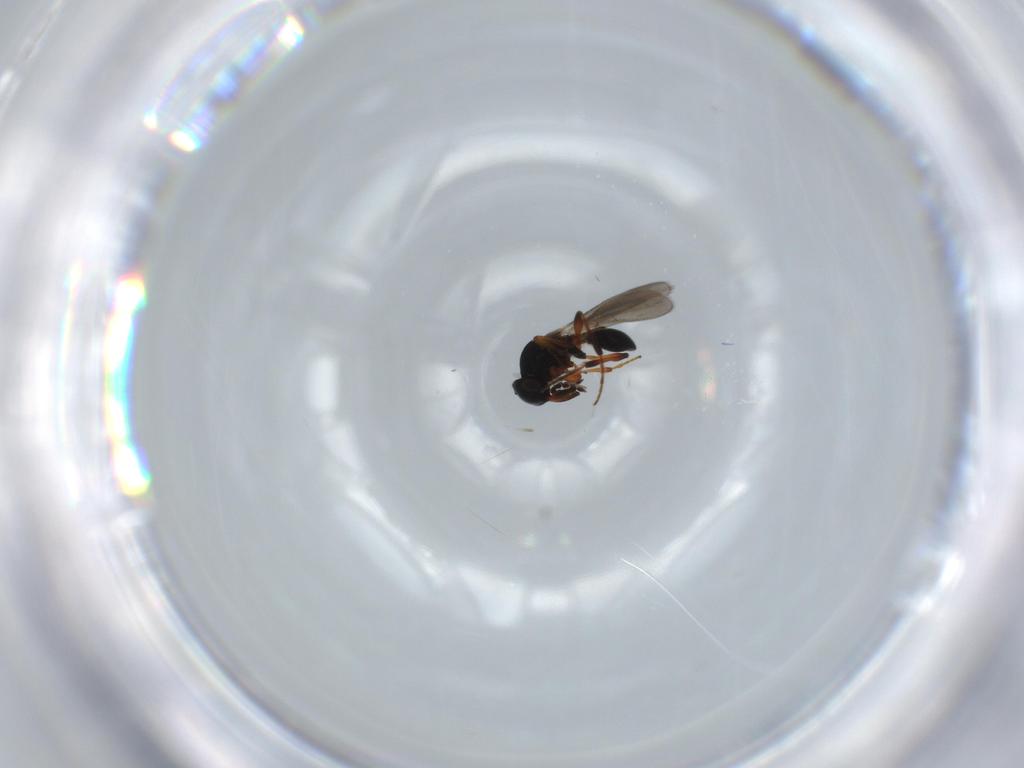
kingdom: Animalia
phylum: Arthropoda
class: Insecta
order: Hymenoptera
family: Platygastridae
